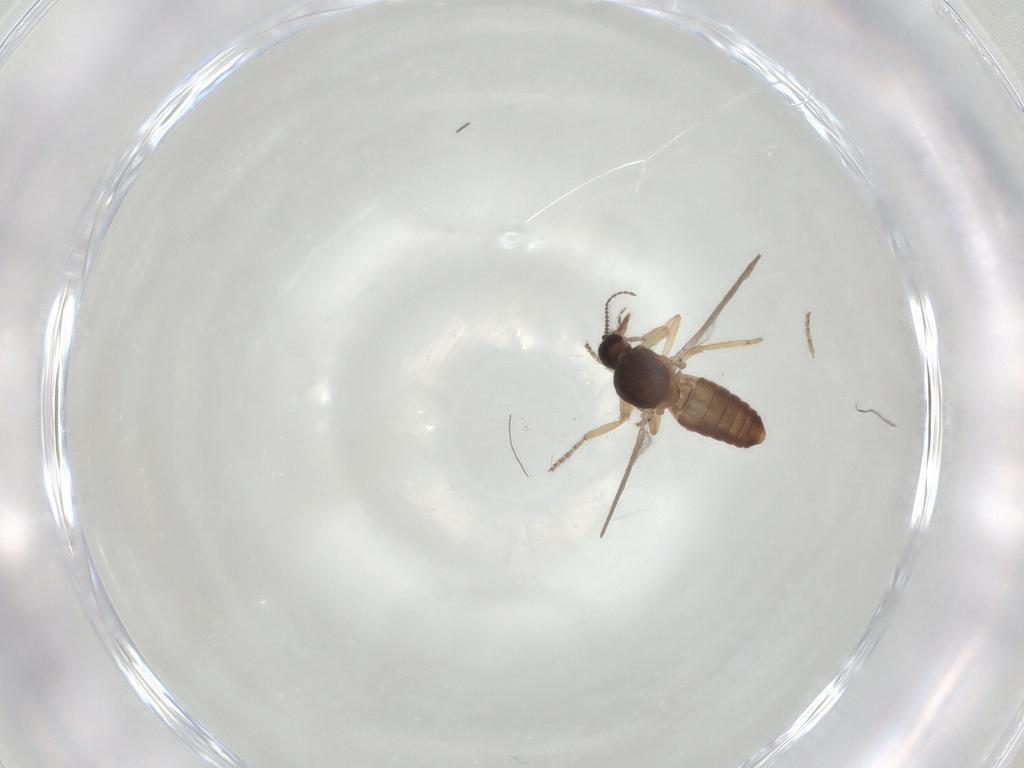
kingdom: Animalia
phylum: Arthropoda
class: Insecta
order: Diptera
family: Ceratopogonidae
